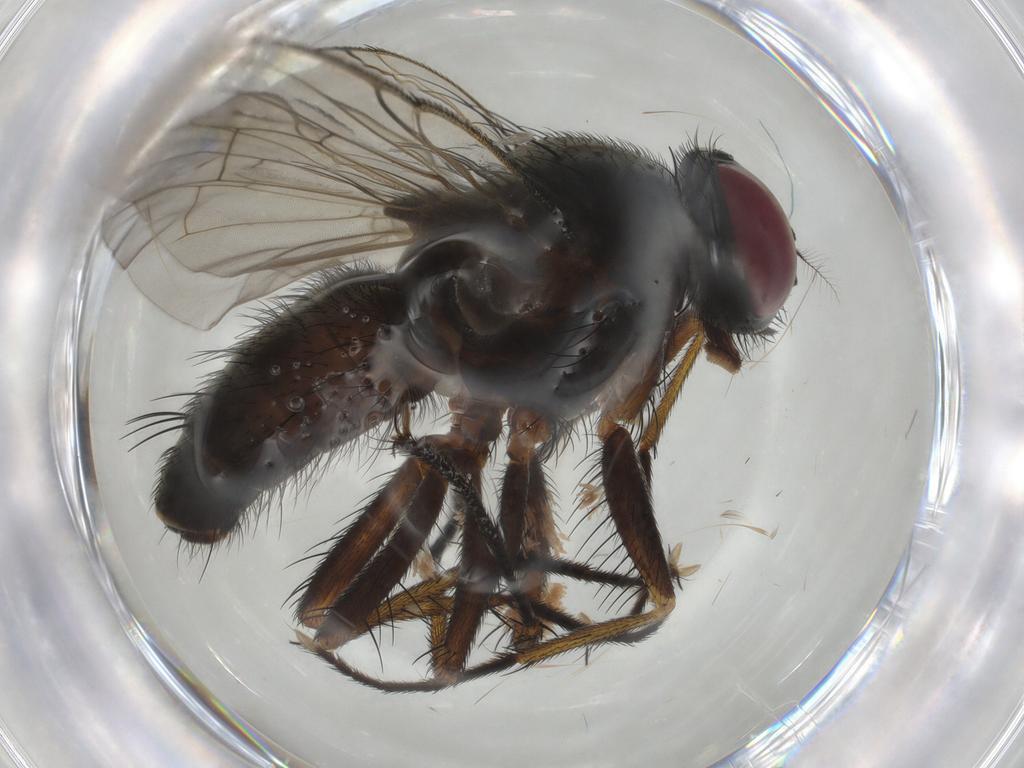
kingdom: Animalia
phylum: Arthropoda
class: Insecta
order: Diptera
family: Muscidae
